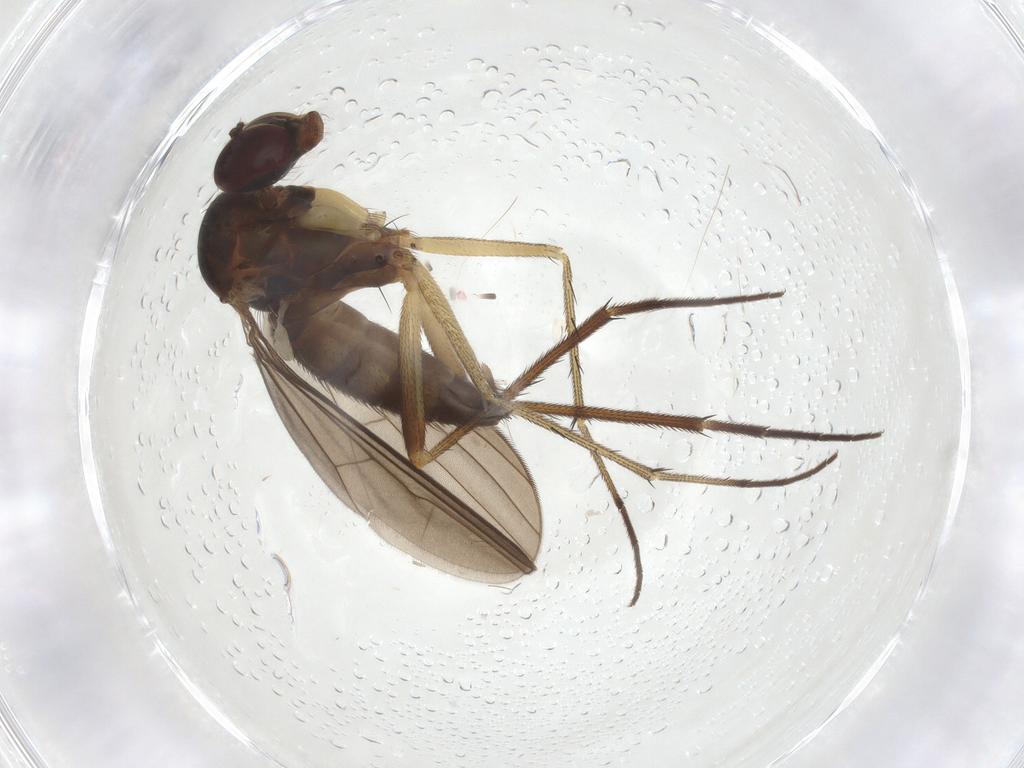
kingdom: Animalia
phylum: Arthropoda
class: Insecta
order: Diptera
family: Dolichopodidae
